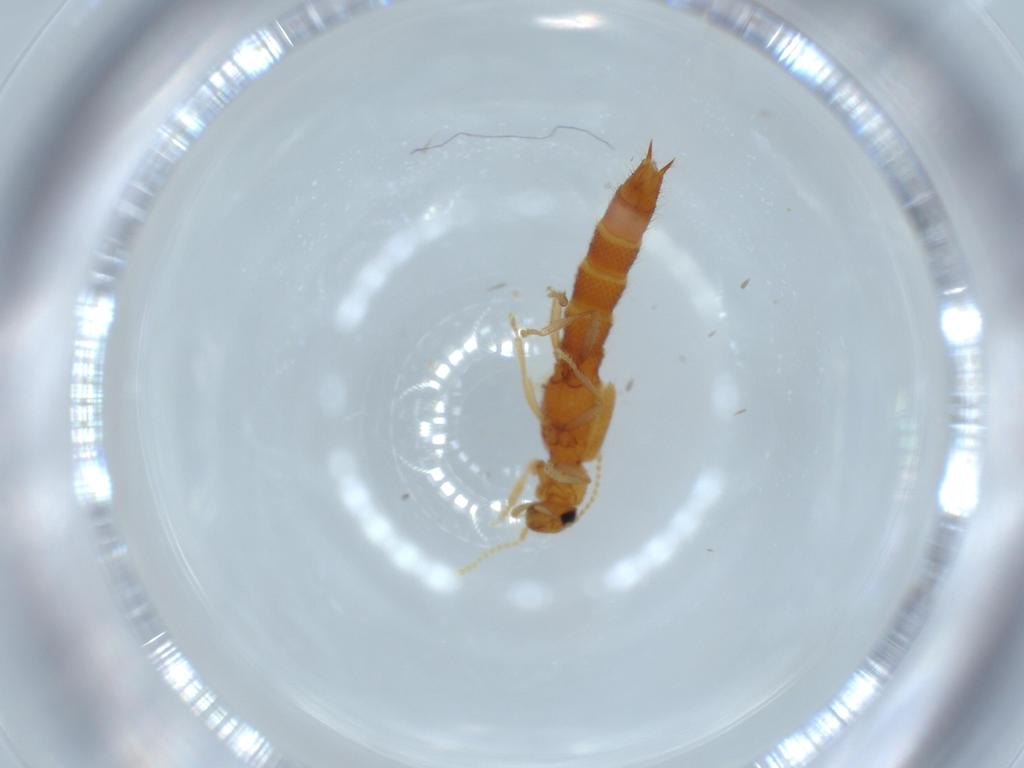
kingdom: Animalia
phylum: Arthropoda
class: Insecta
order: Coleoptera
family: Staphylinidae
